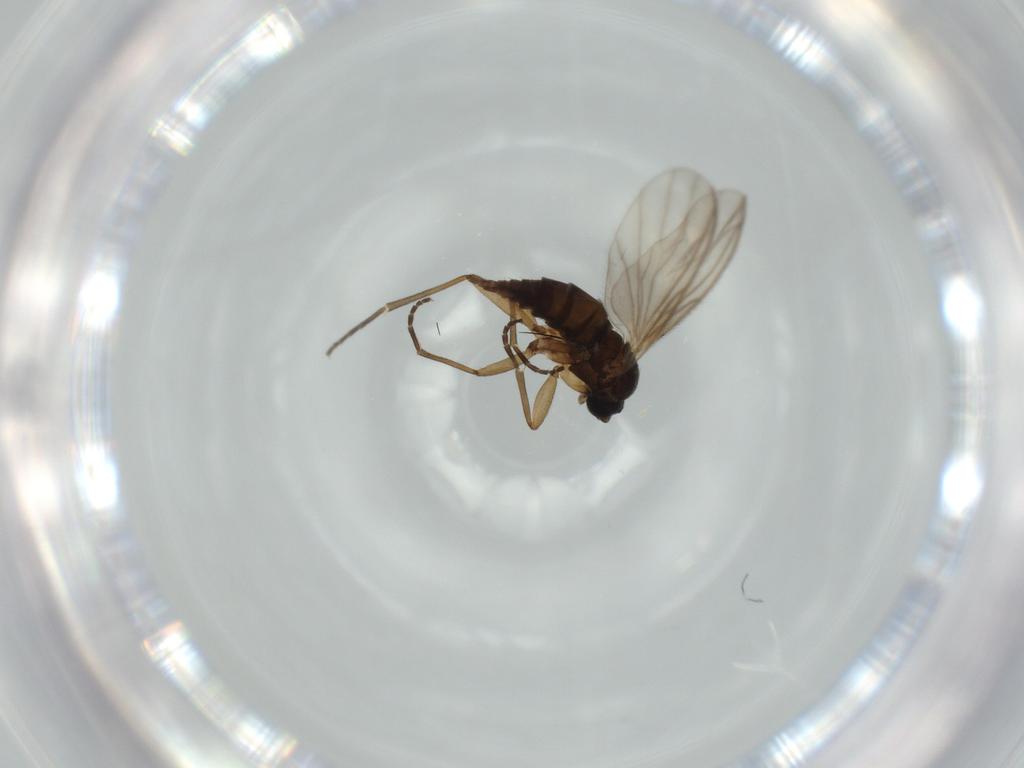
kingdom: Animalia
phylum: Arthropoda
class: Insecta
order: Diptera
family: Sciaridae
